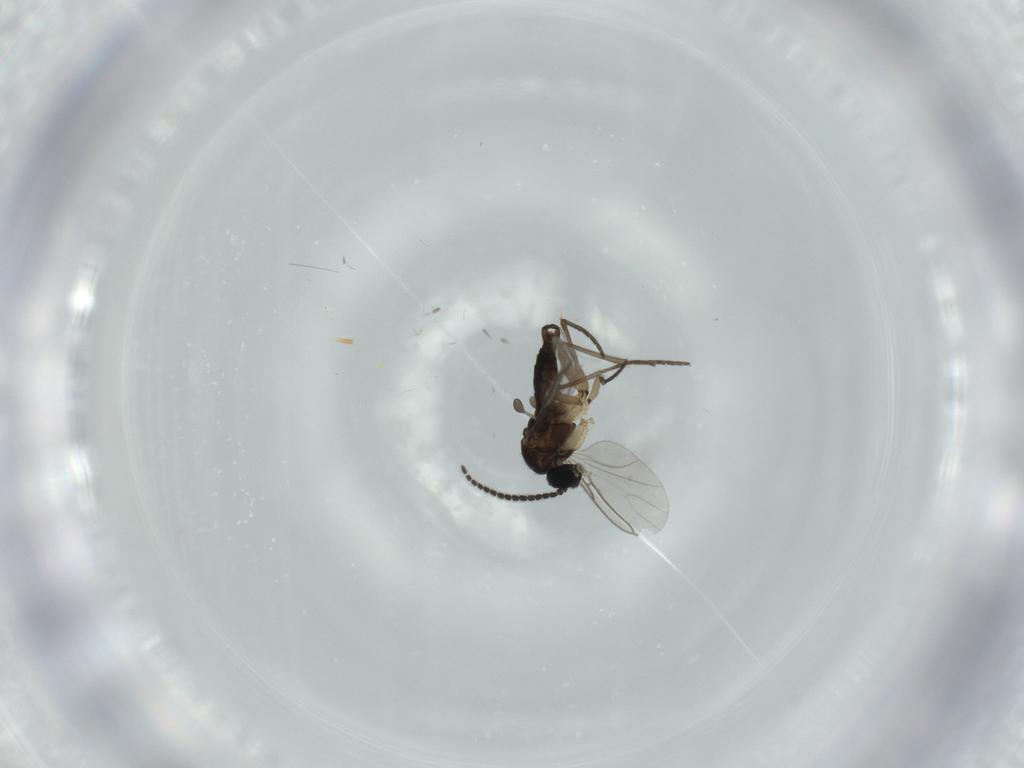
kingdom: Animalia
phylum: Arthropoda
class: Insecta
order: Diptera
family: Sciaridae
